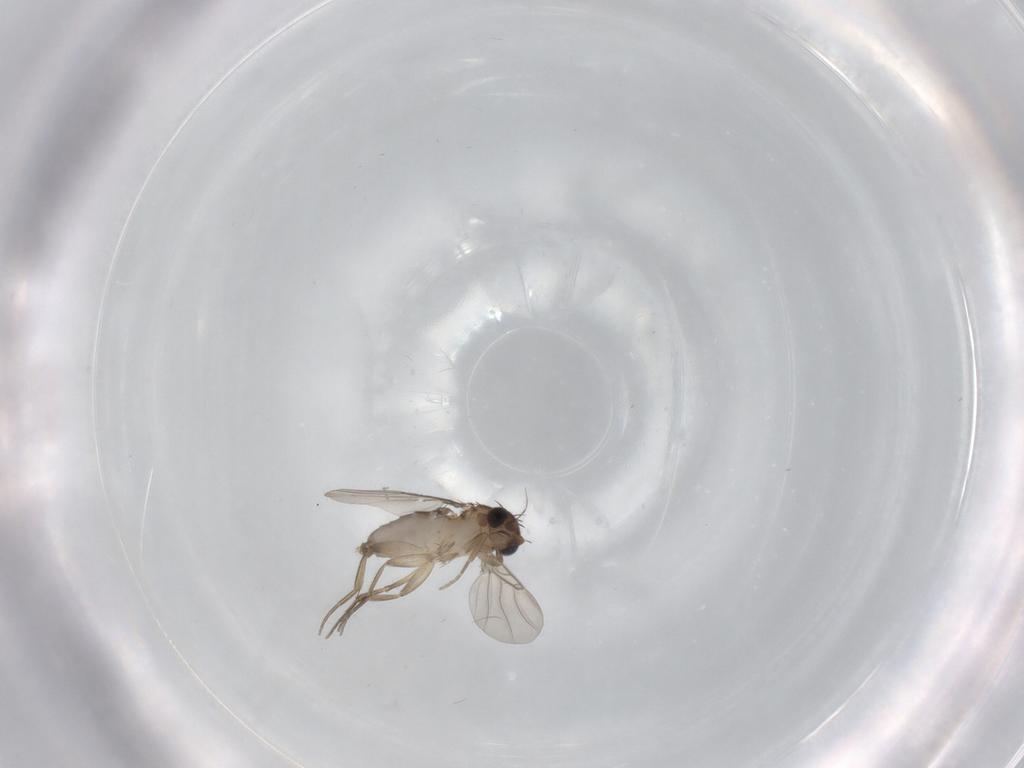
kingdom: Animalia
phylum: Arthropoda
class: Insecta
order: Diptera
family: Phoridae
